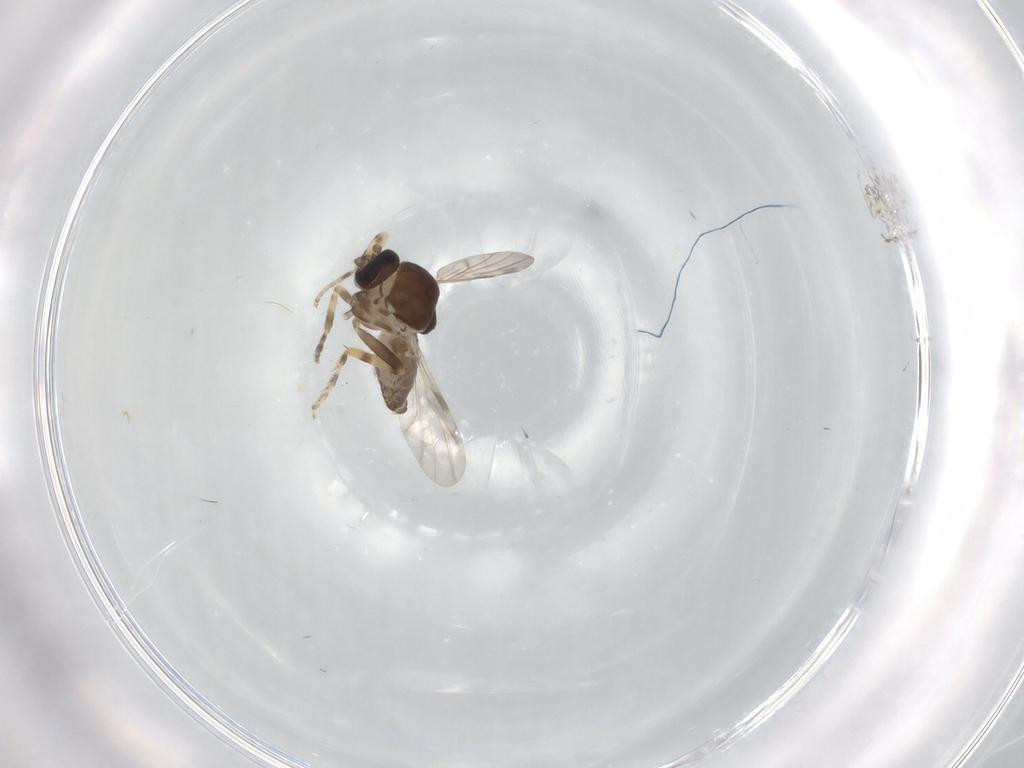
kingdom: Animalia
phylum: Arthropoda
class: Insecta
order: Diptera
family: Ceratopogonidae
